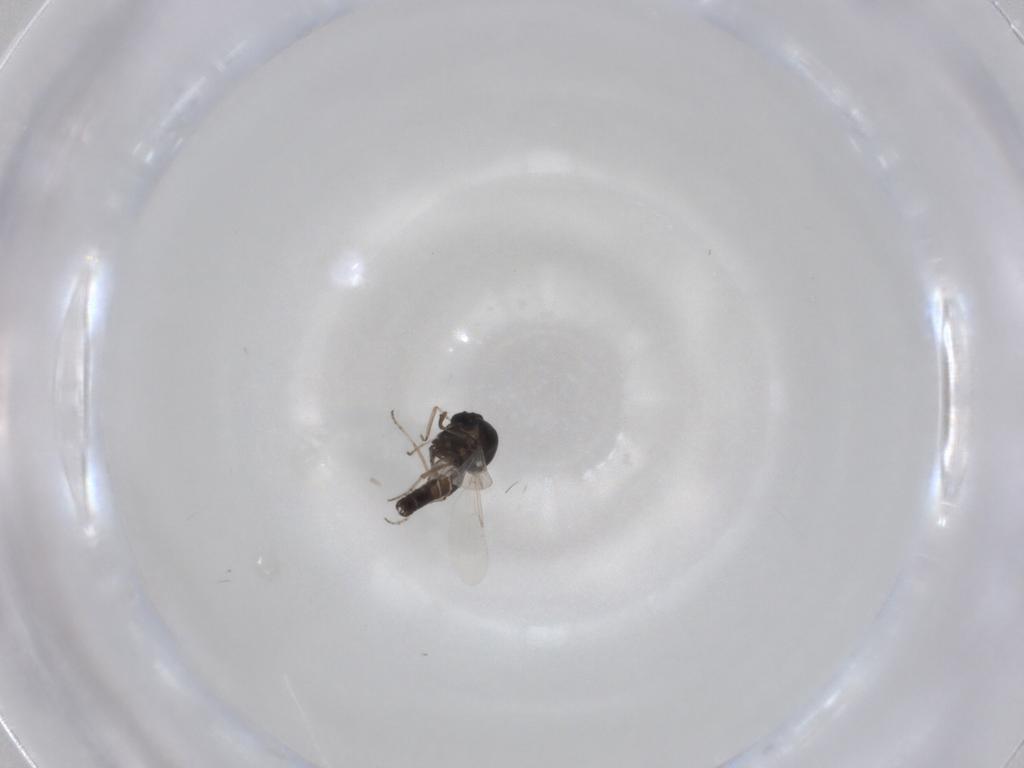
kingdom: Animalia
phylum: Arthropoda
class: Insecta
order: Diptera
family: Ceratopogonidae
